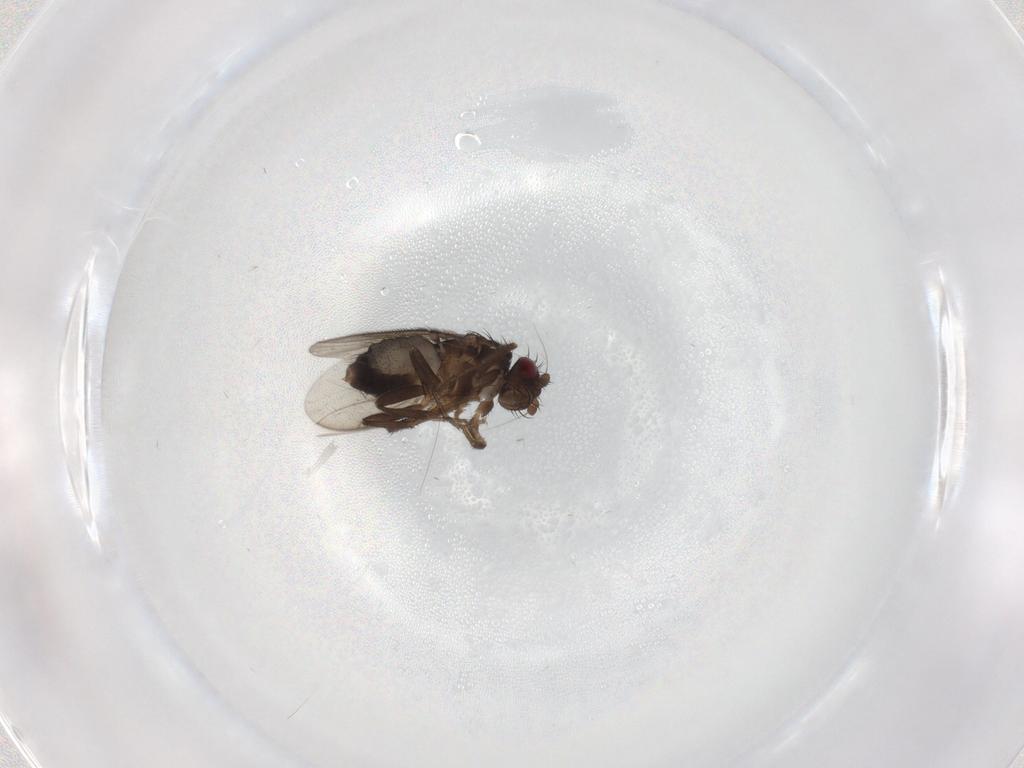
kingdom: Animalia
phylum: Arthropoda
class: Insecta
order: Diptera
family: Sphaeroceridae
